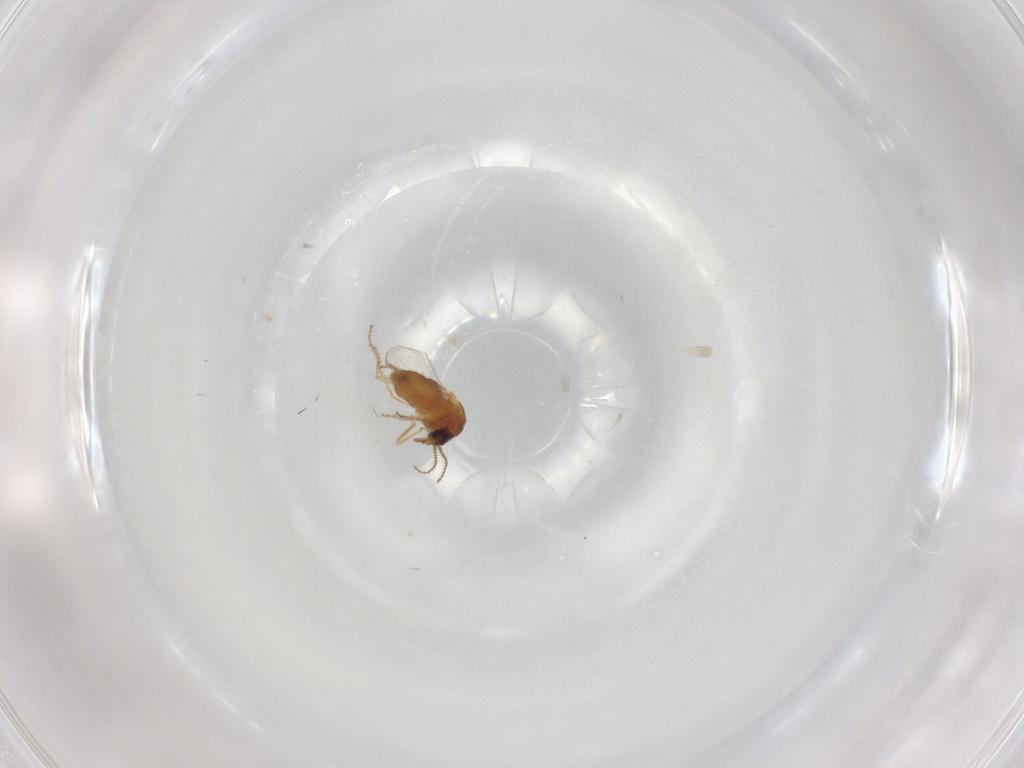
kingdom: Animalia
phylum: Arthropoda
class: Insecta
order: Diptera
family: Ceratopogonidae
